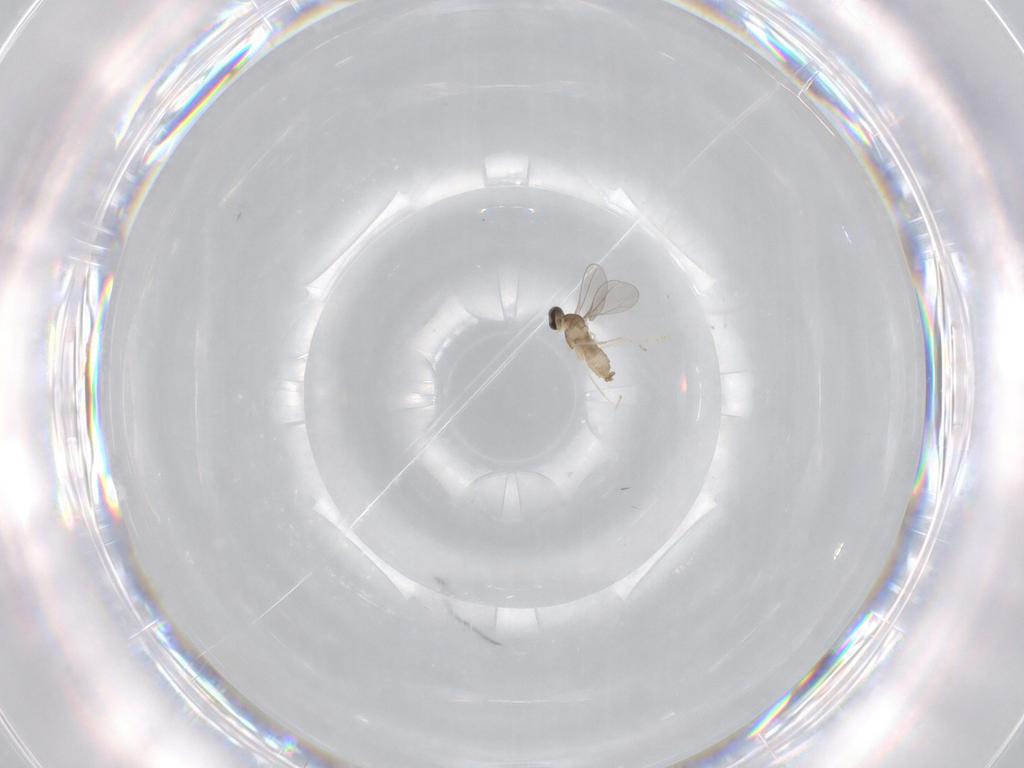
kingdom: Animalia
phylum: Arthropoda
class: Insecta
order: Diptera
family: Cecidomyiidae
